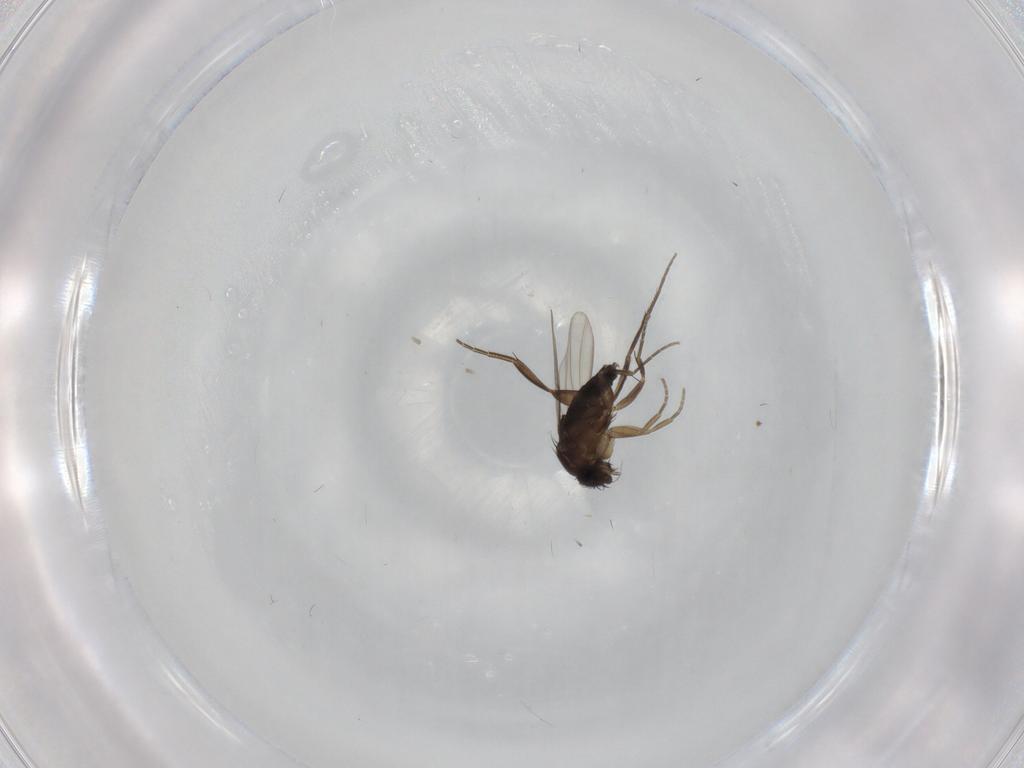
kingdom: Animalia
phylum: Arthropoda
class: Insecta
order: Diptera
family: Phoridae
